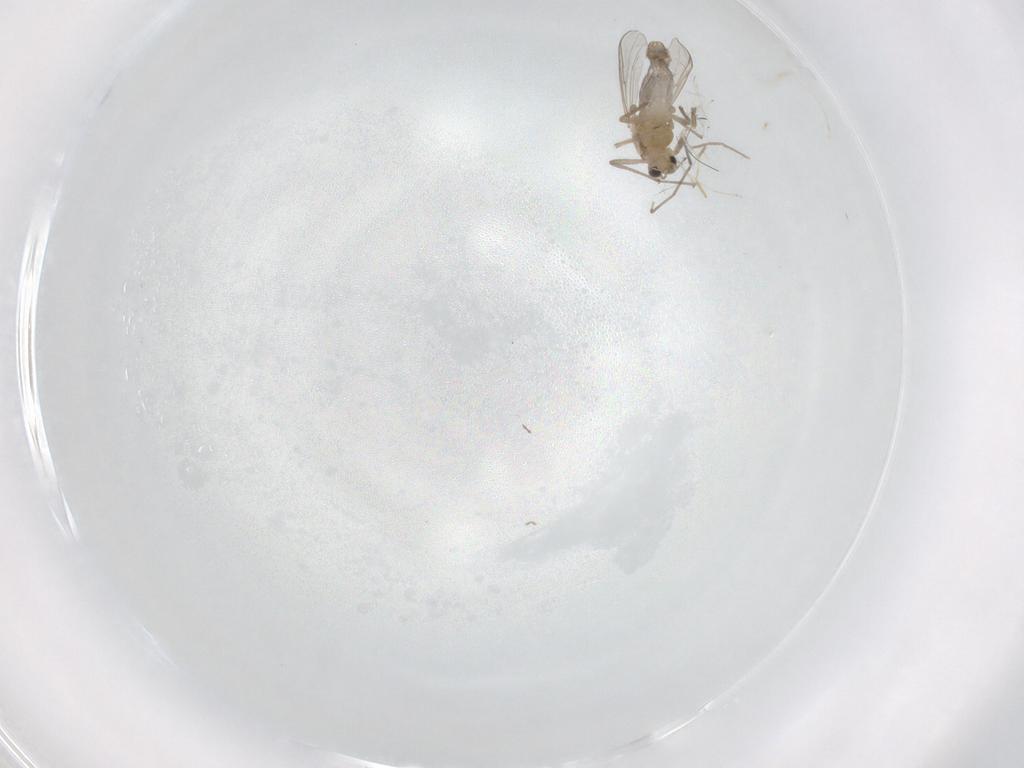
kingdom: Animalia
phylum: Arthropoda
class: Insecta
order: Diptera
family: Chironomidae
